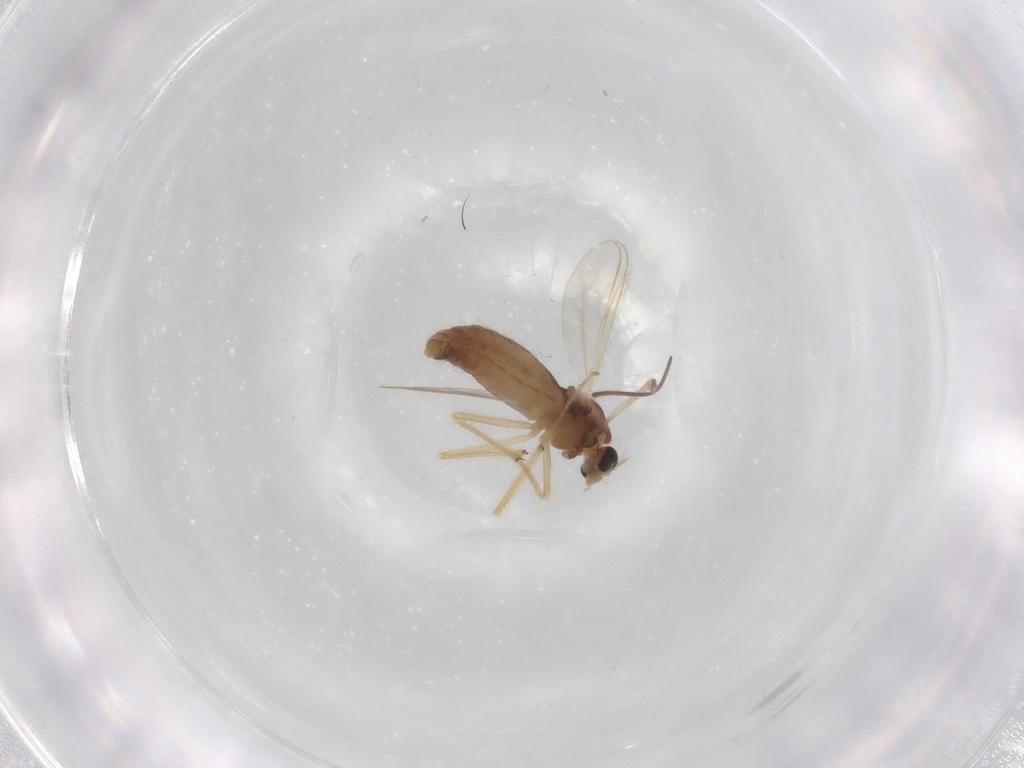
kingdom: Animalia
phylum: Arthropoda
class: Insecta
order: Diptera
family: Chironomidae
